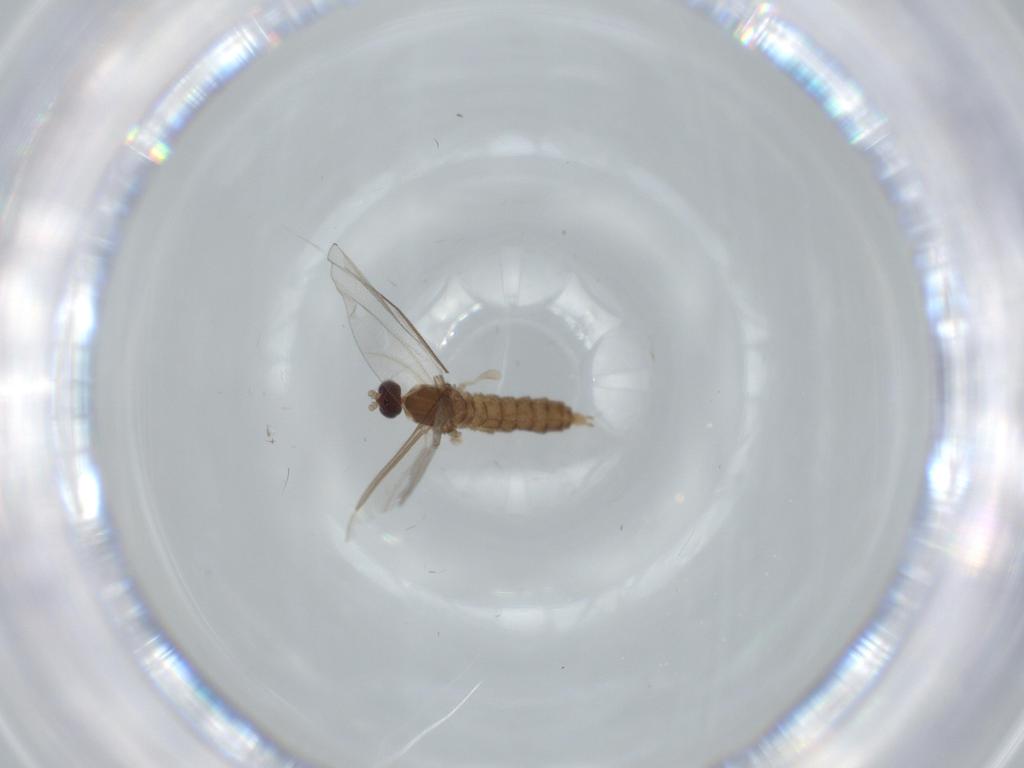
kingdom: Animalia
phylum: Arthropoda
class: Insecta
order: Diptera
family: Cecidomyiidae
